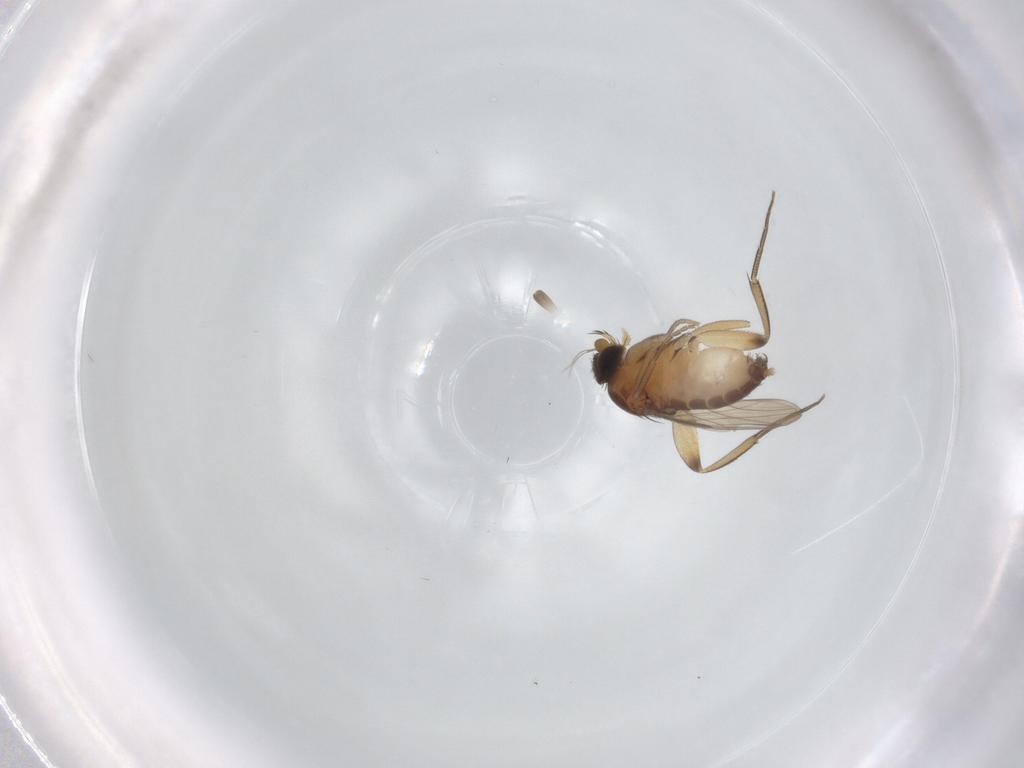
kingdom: Animalia
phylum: Arthropoda
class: Insecta
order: Diptera
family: Phoridae
